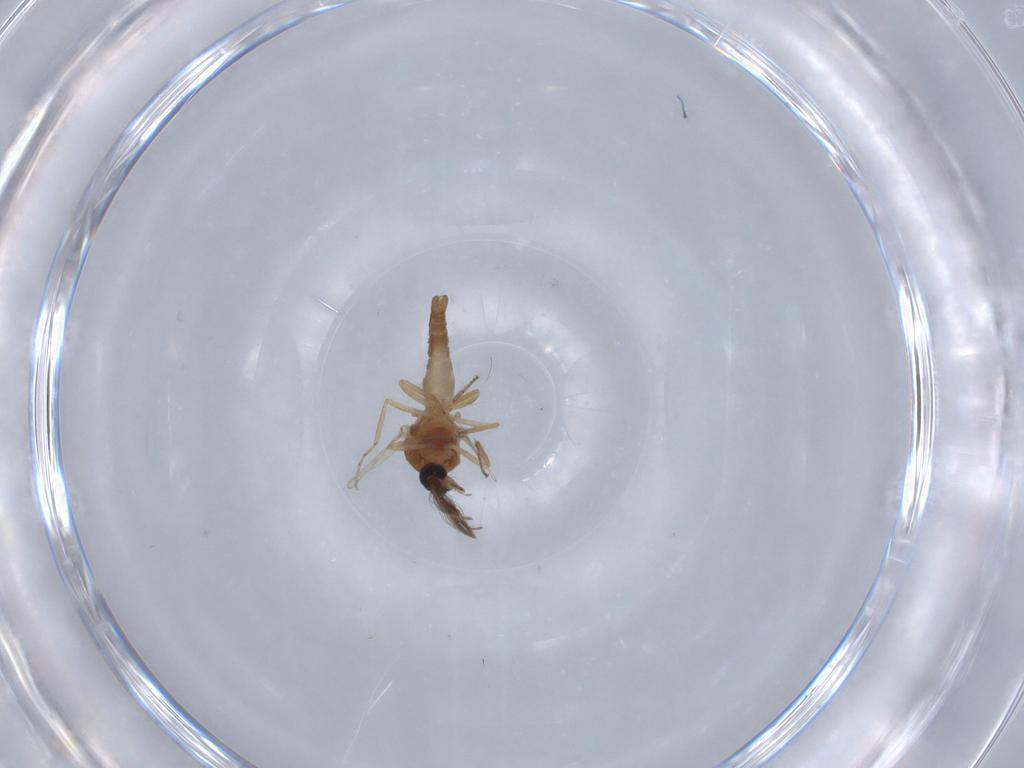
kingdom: Animalia
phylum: Arthropoda
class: Insecta
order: Diptera
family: Ceratopogonidae
